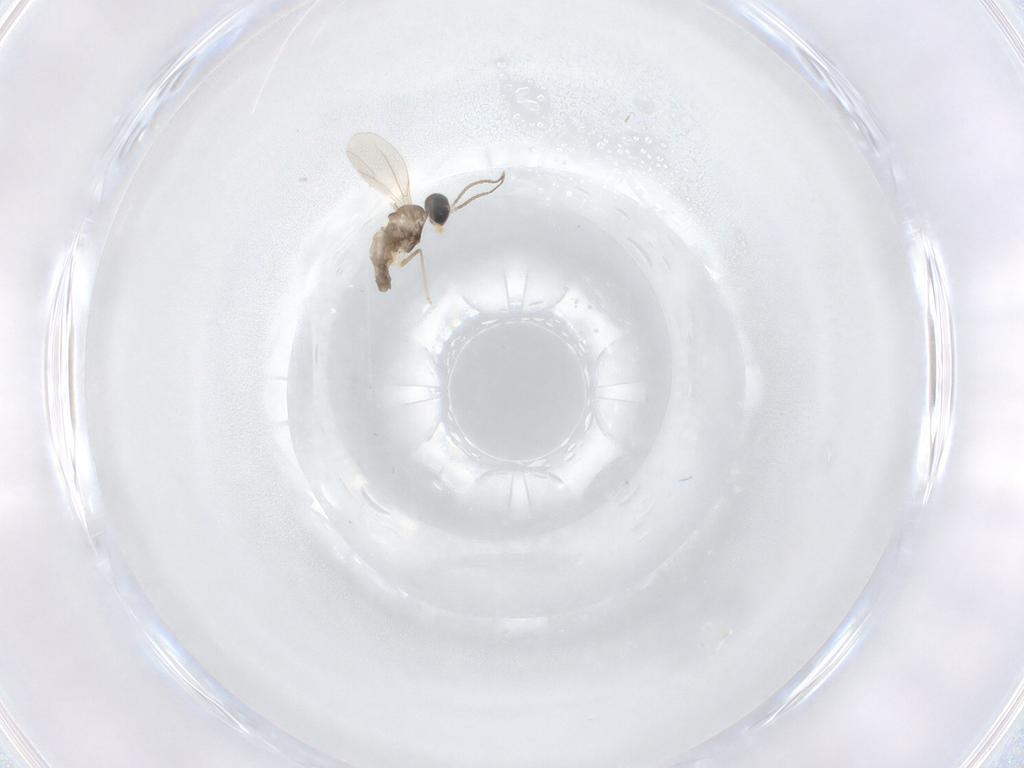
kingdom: Animalia
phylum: Arthropoda
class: Insecta
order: Diptera
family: Cecidomyiidae
